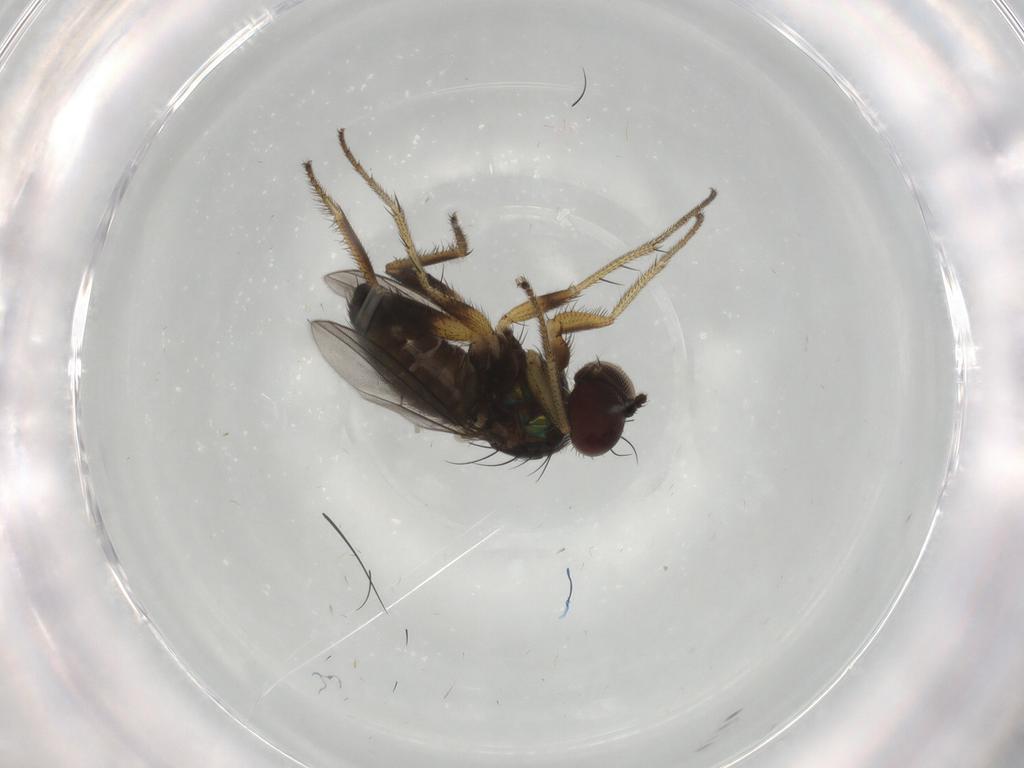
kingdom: Animalia
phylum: Arthropoda
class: Insecta
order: Diptera
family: Dolichopodidae
